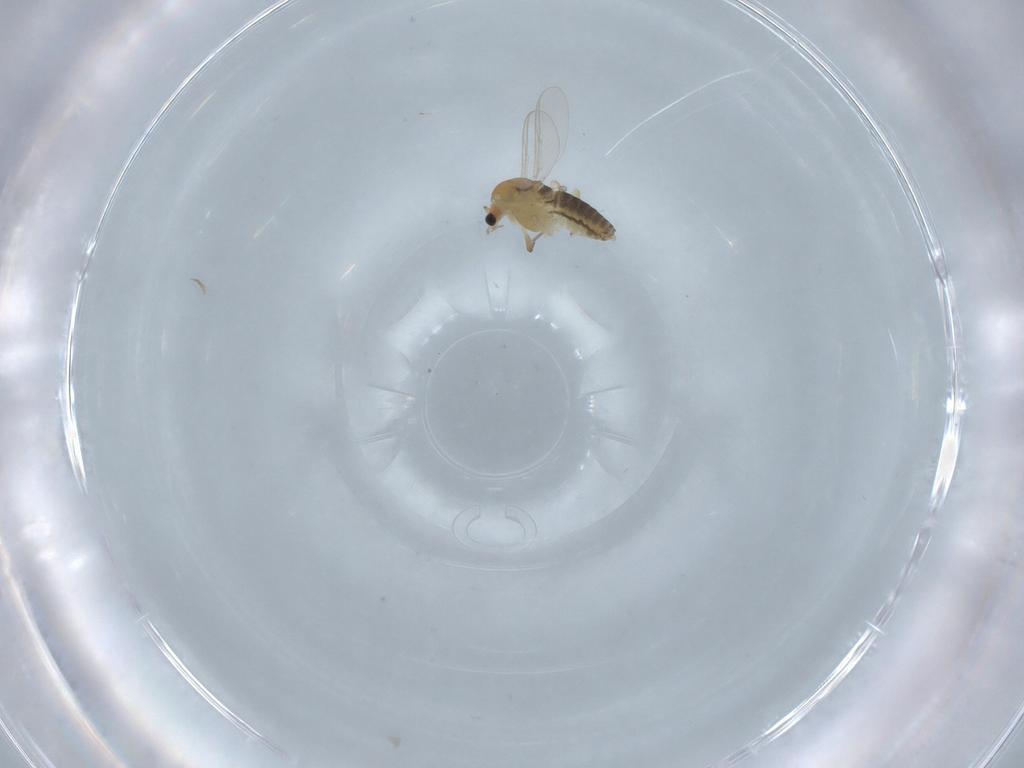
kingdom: Animalia
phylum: Arthropoda
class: Insecta
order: Diptera
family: Chironomidae
